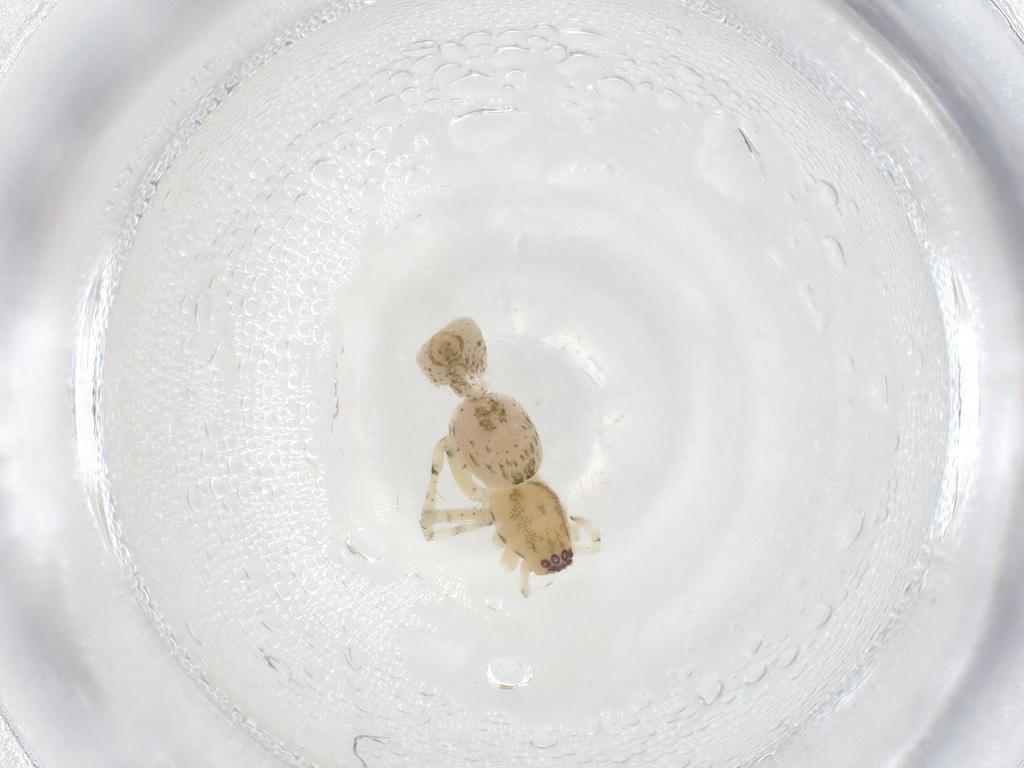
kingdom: Animalia
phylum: Arthropoda
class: Arachnida
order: Araneae
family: Anyphaenidae
